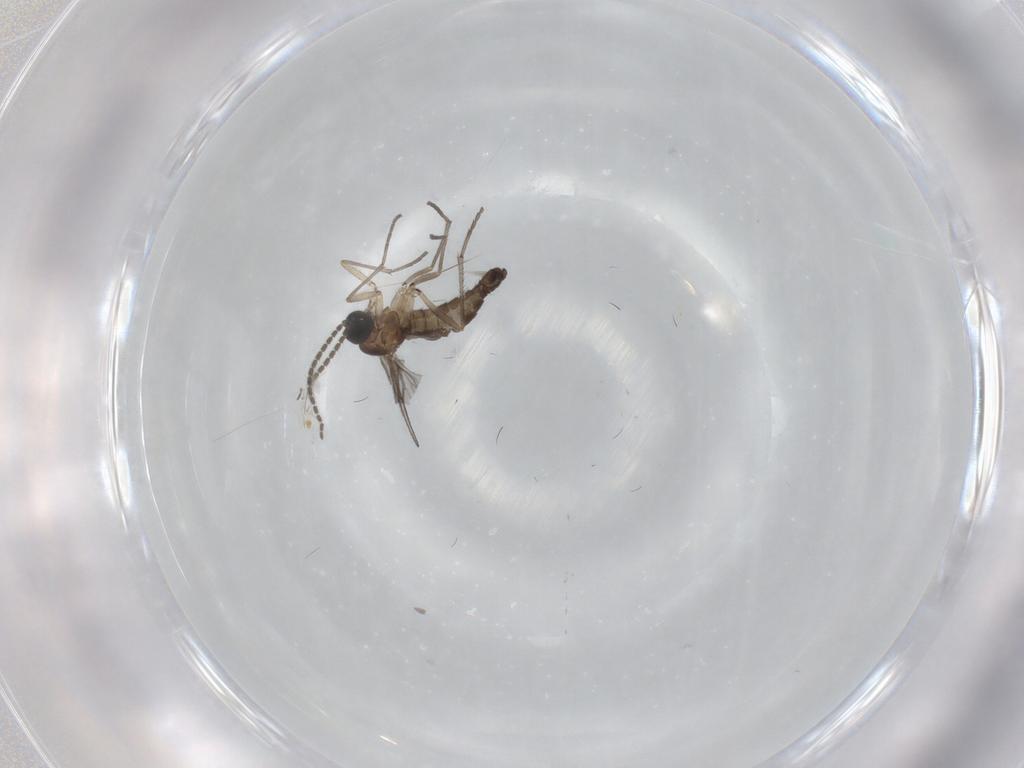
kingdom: Animalia
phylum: Arthropoda
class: Insecta
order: Diptera
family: Sciaridae
